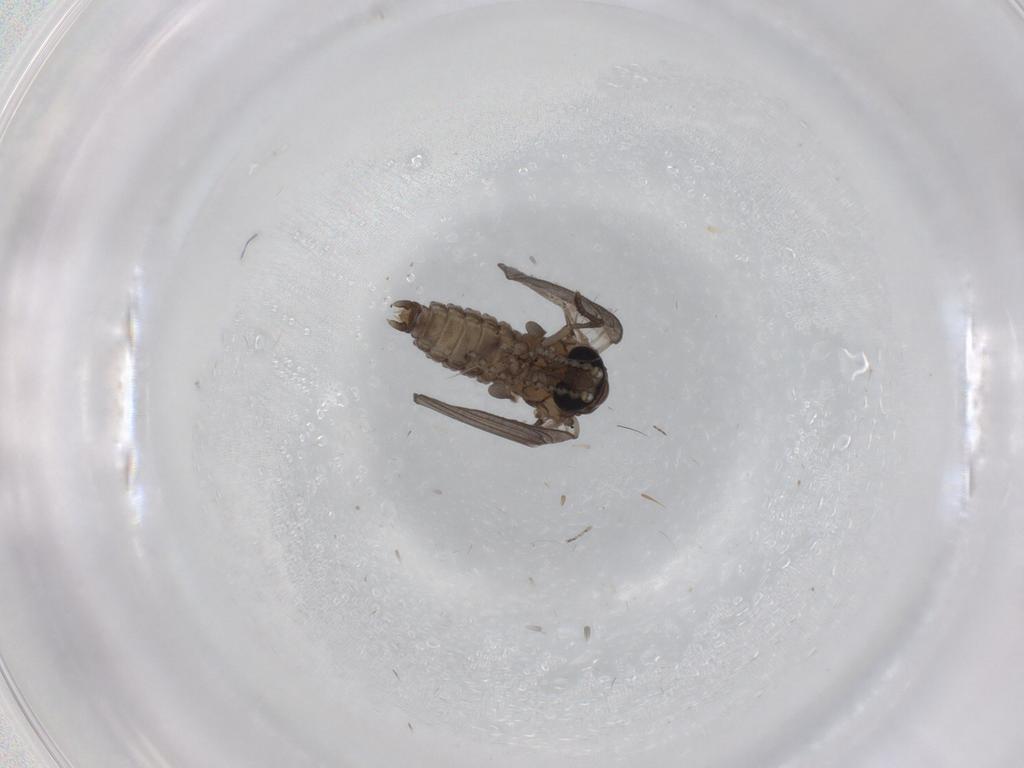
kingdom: Animalia
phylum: Arthropoda
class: Insecta
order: Diptera
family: Limoniidae
